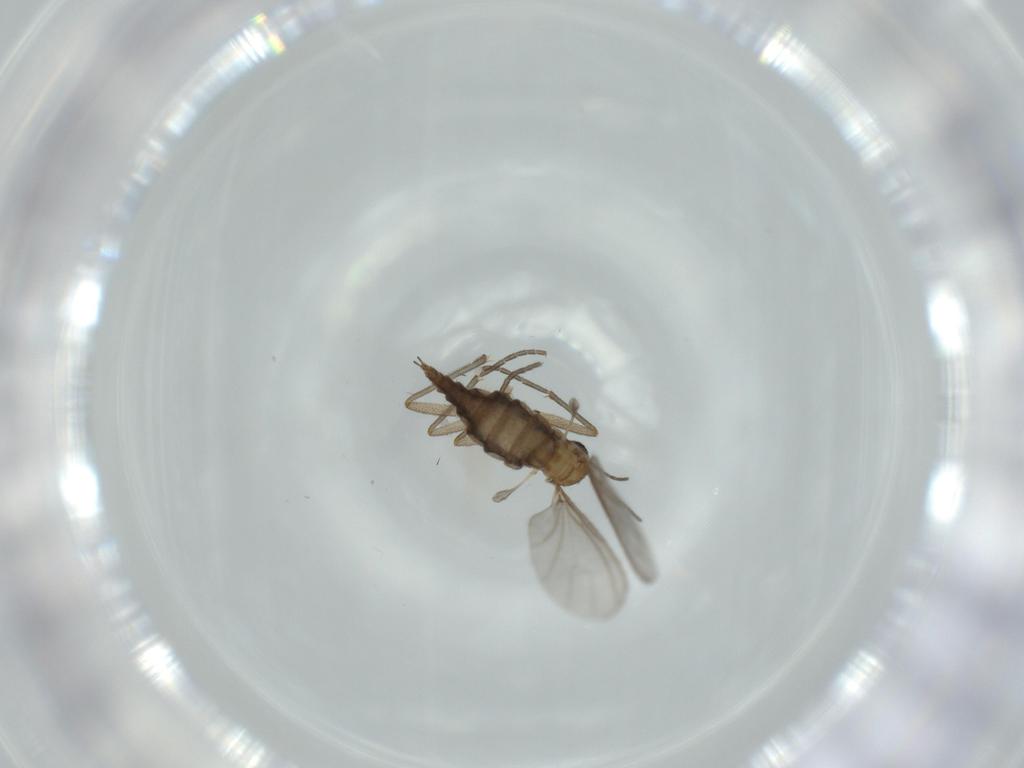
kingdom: Animalia
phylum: Arthropoda
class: Insecta
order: Diptera
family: Sciaridae
